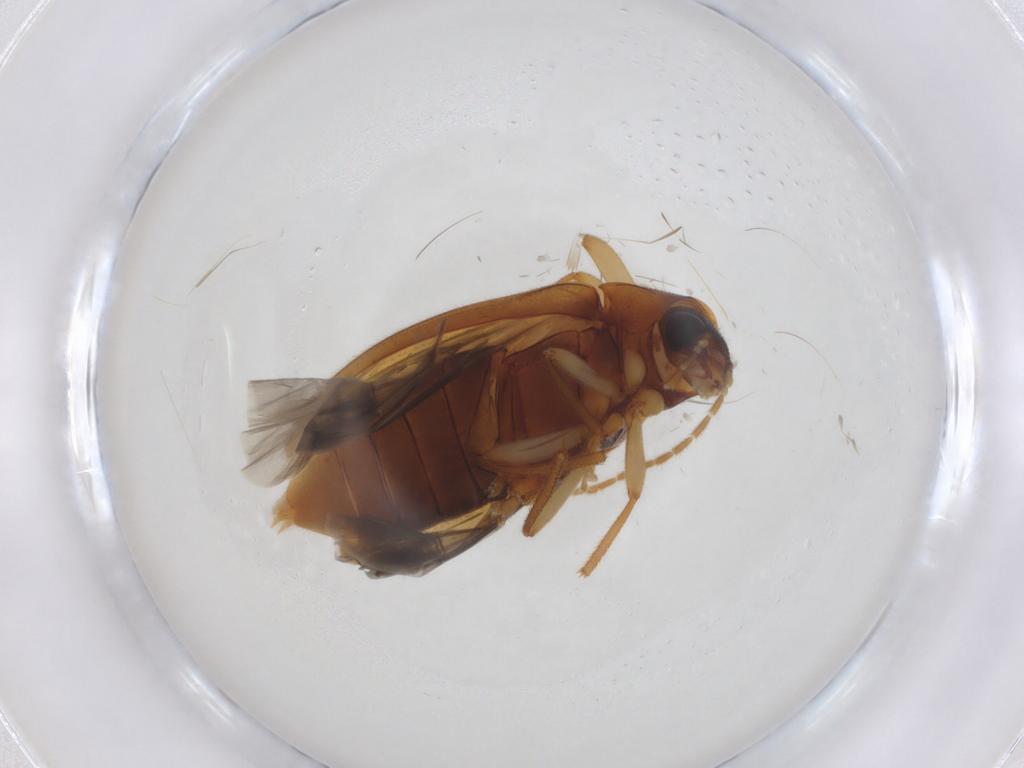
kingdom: Animalia
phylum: Arthropoda
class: Insecta
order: Coleoptera
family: Ptilodactylidae
